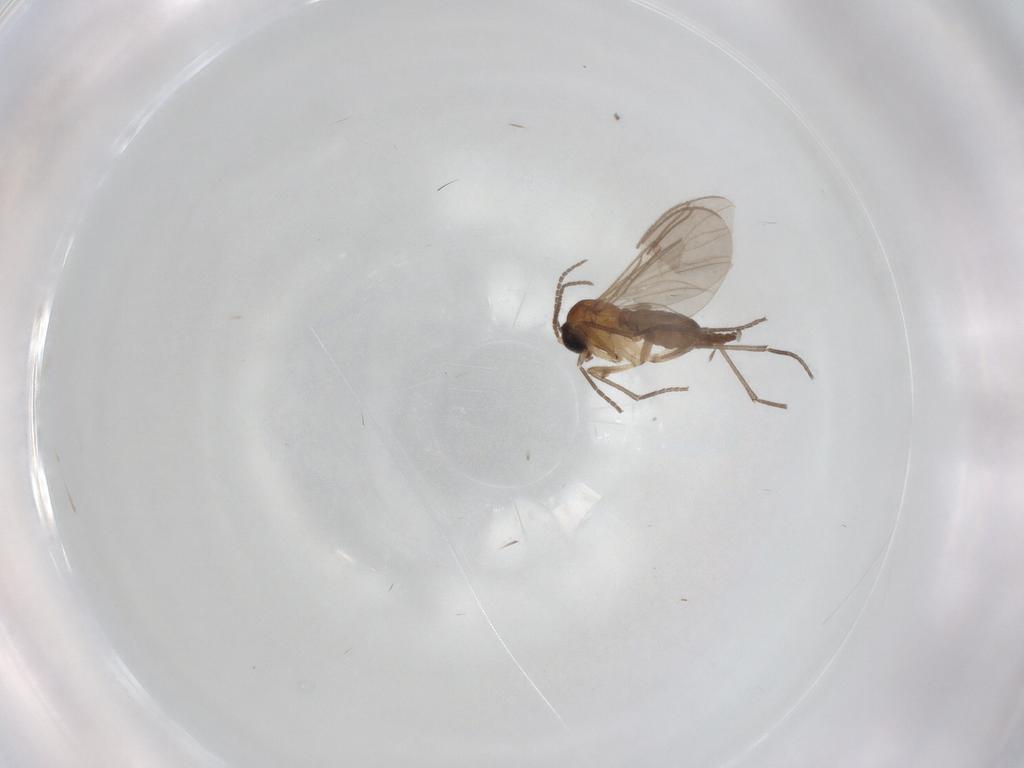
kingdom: Animalia
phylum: Arthropoda
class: Insecta
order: Diptera
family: Sciaridae
